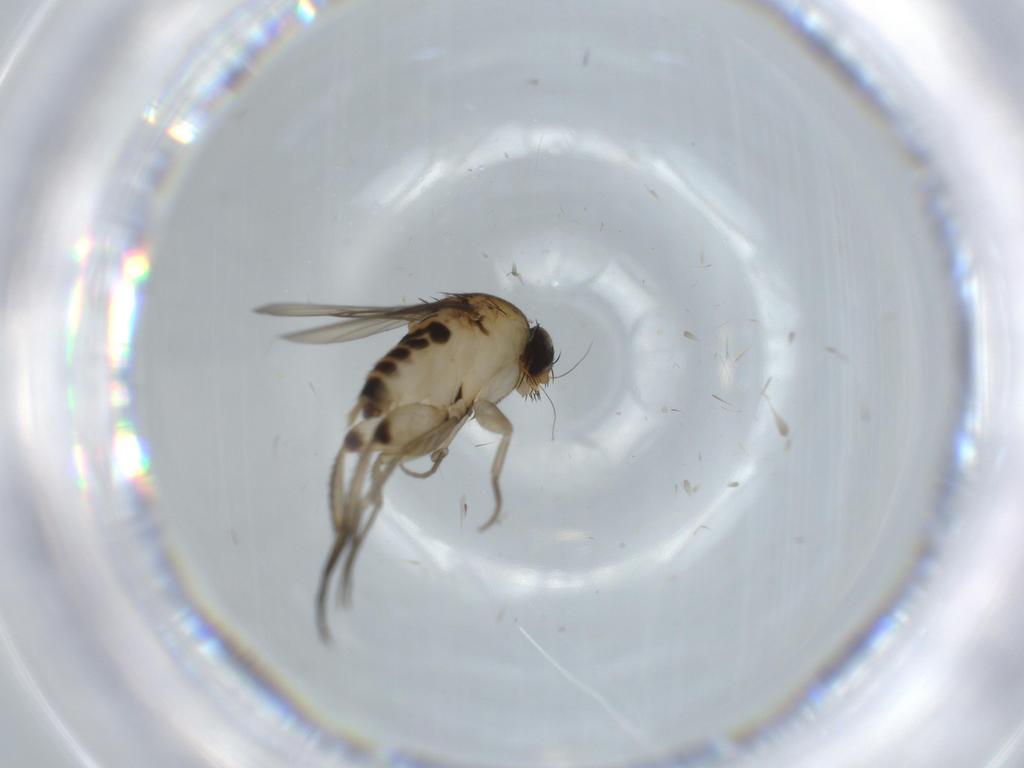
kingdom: Animalia
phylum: Arthropoda
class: Insecta
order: Diptera
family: Phoridae
